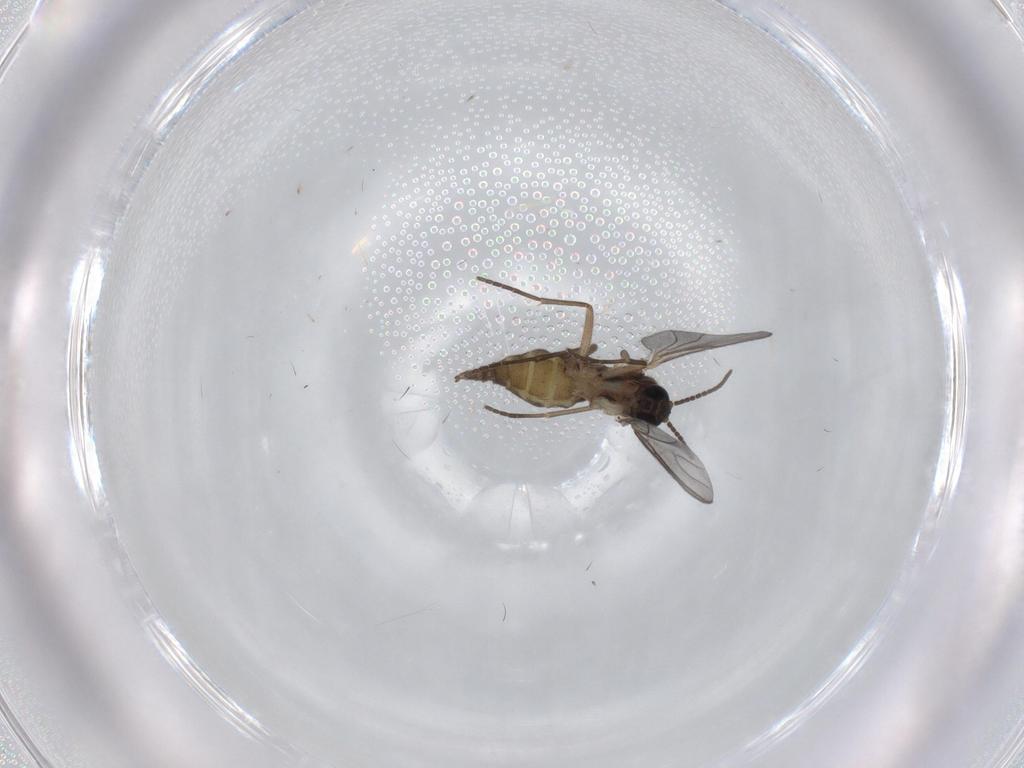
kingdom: Animalia
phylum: Arthropoda
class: Insecta
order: Diptera
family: Sciaridae
